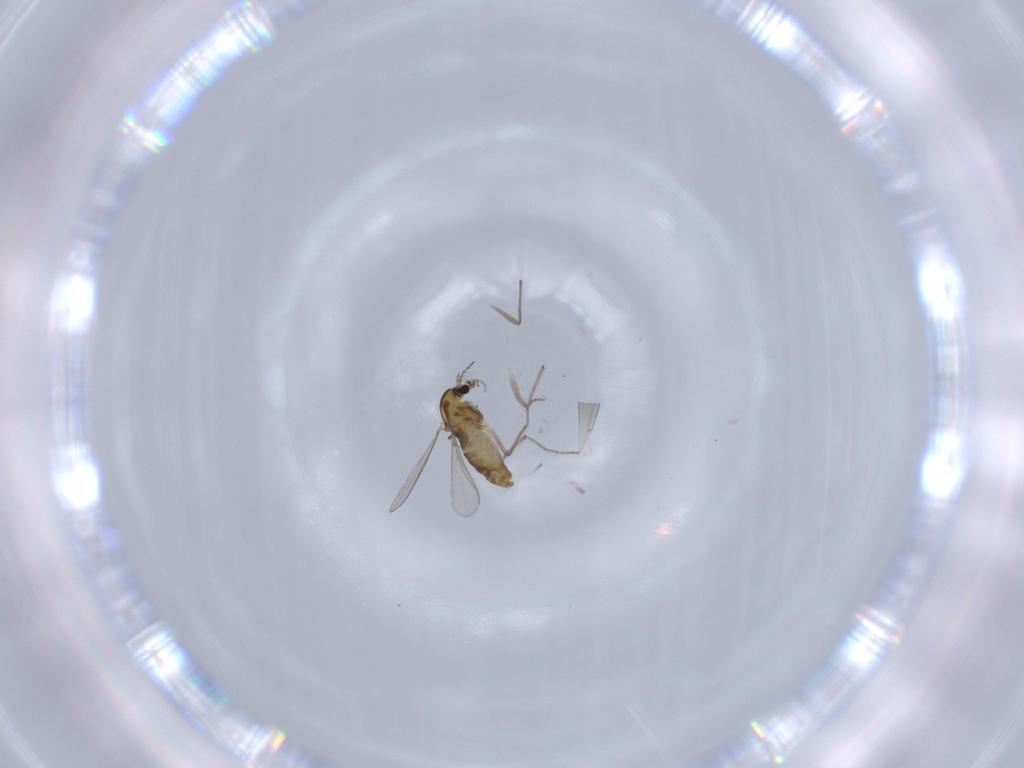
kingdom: Animalia
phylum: Arthropoda
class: Insecta
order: Diptera
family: Chironomidae
